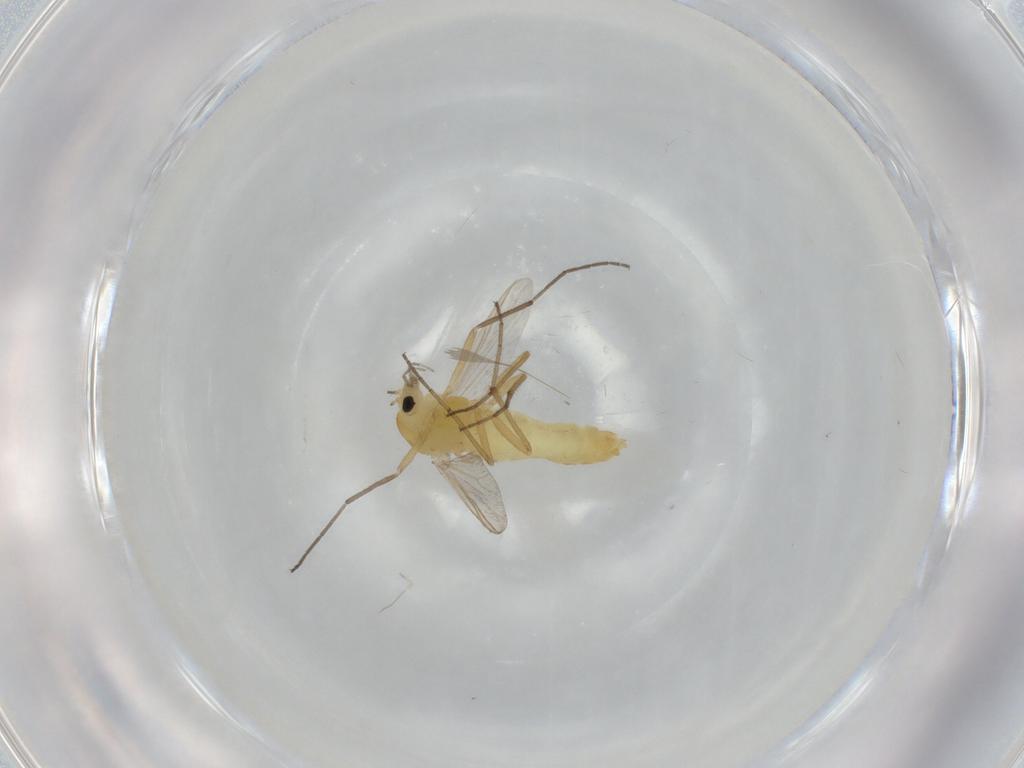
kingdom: Animalia
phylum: Arthropoda
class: Insecta
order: Diptera
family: Chironomidae
